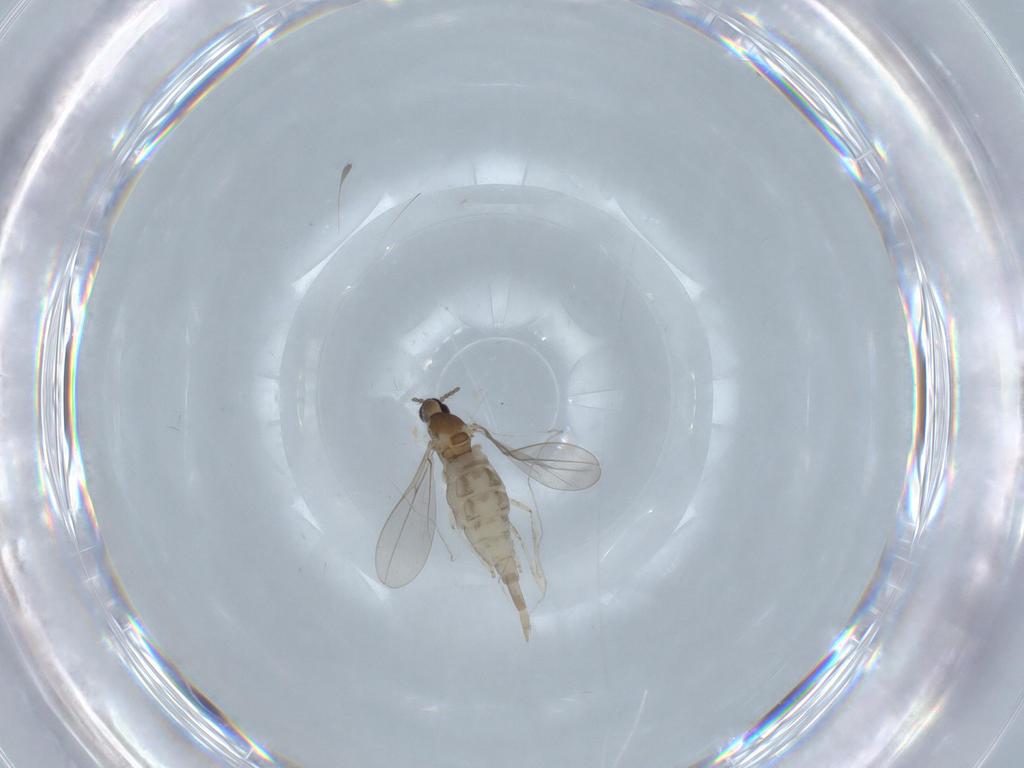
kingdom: Animalia
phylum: Arthropoda
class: Insecta
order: Diptera
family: Cecidomyiidae
